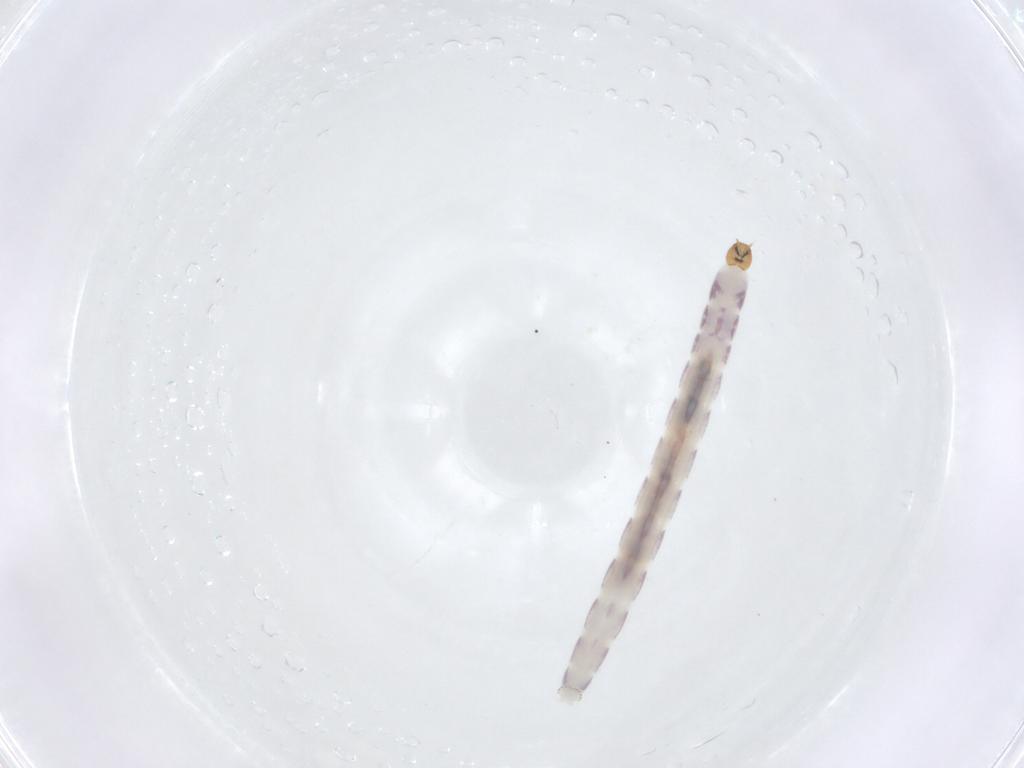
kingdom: Animalia
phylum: Arthropoda
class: Insecta
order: Diptera
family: Chironomidae
